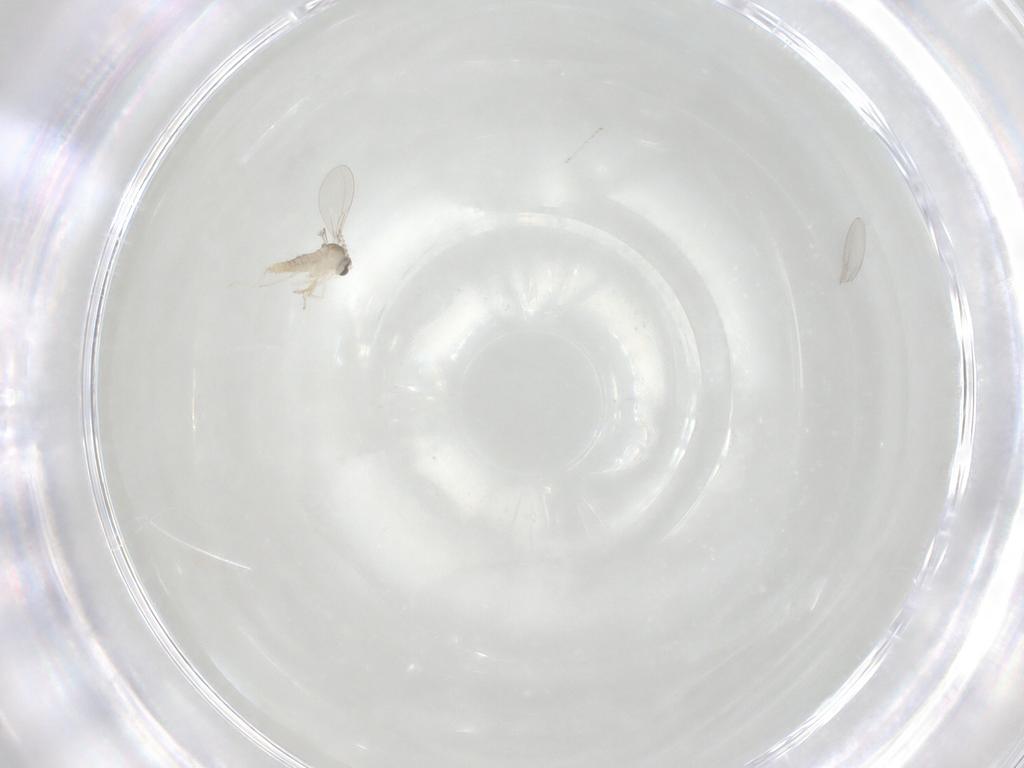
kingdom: Animalia
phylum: Arthropoda
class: Insecta
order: Diptera
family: Cecidomyiidae
